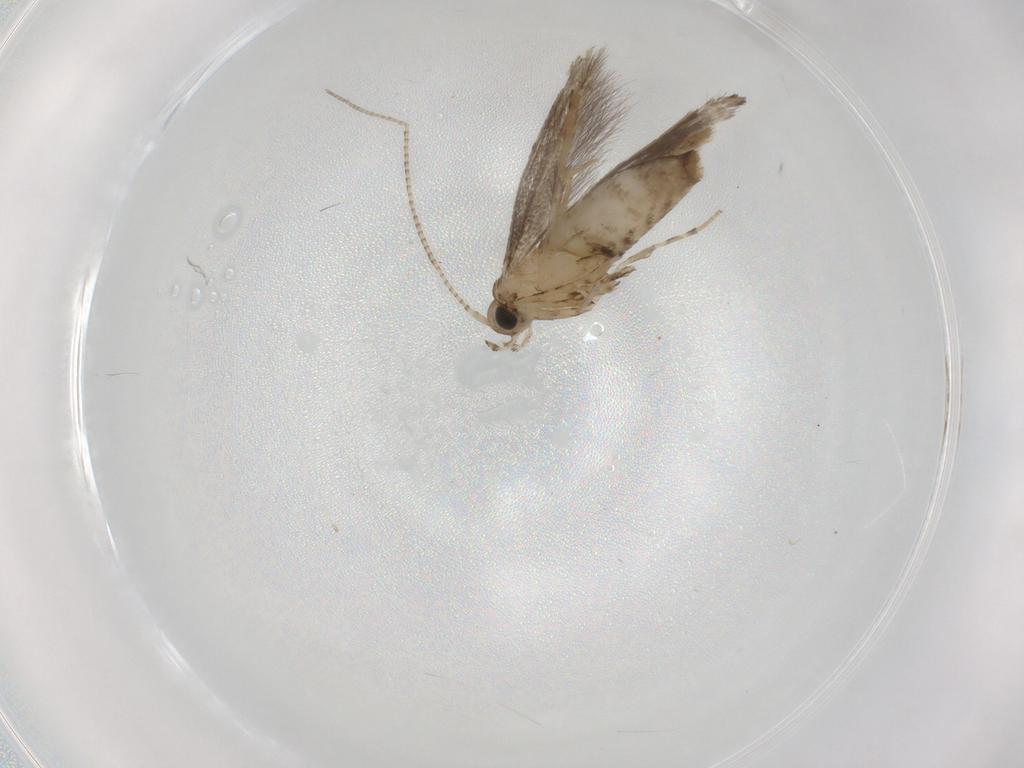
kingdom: Animalia
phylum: Arthropoda
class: Insecta
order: Lepidoptera
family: Gracillariidae
